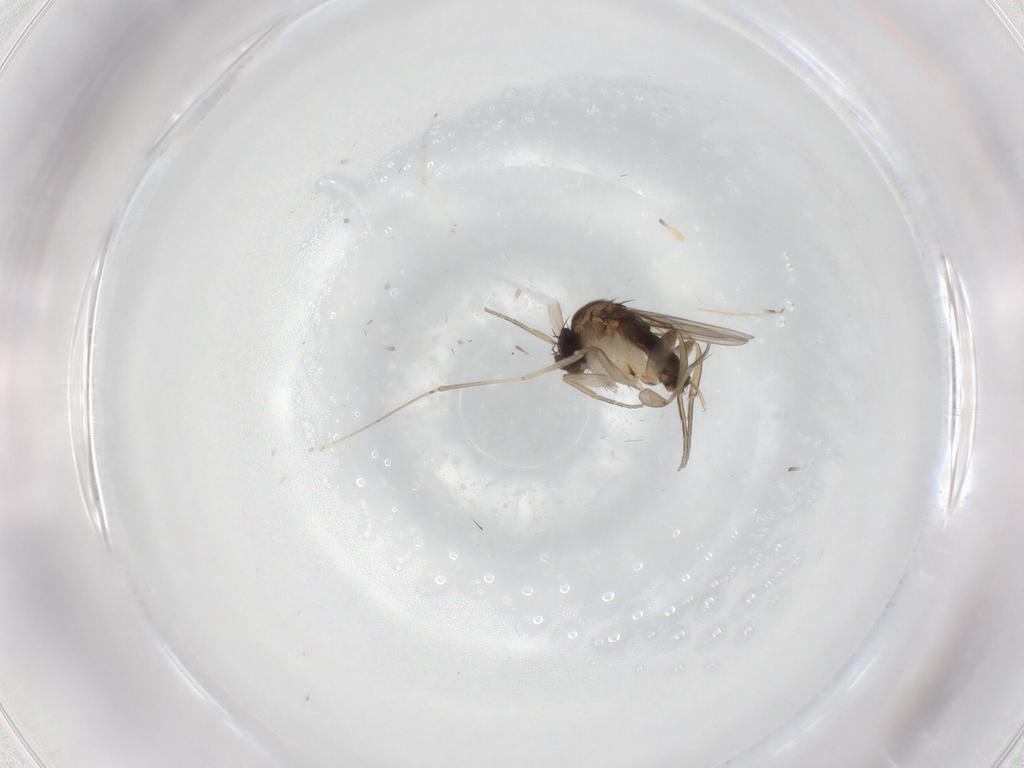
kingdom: Animalia
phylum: Arthropoda
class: Insecta
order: Diptera
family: Cecidomyiidae
